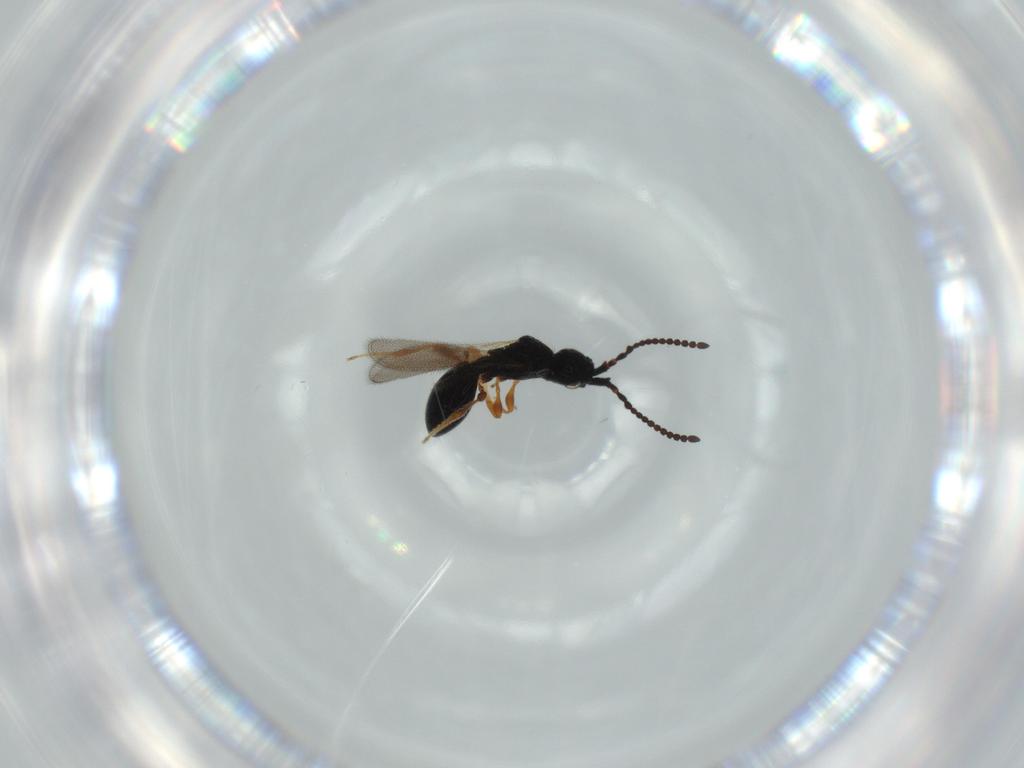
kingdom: Animalia
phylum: Arthropoda
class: Insecta
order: Hymenoptera
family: Diapriidae
